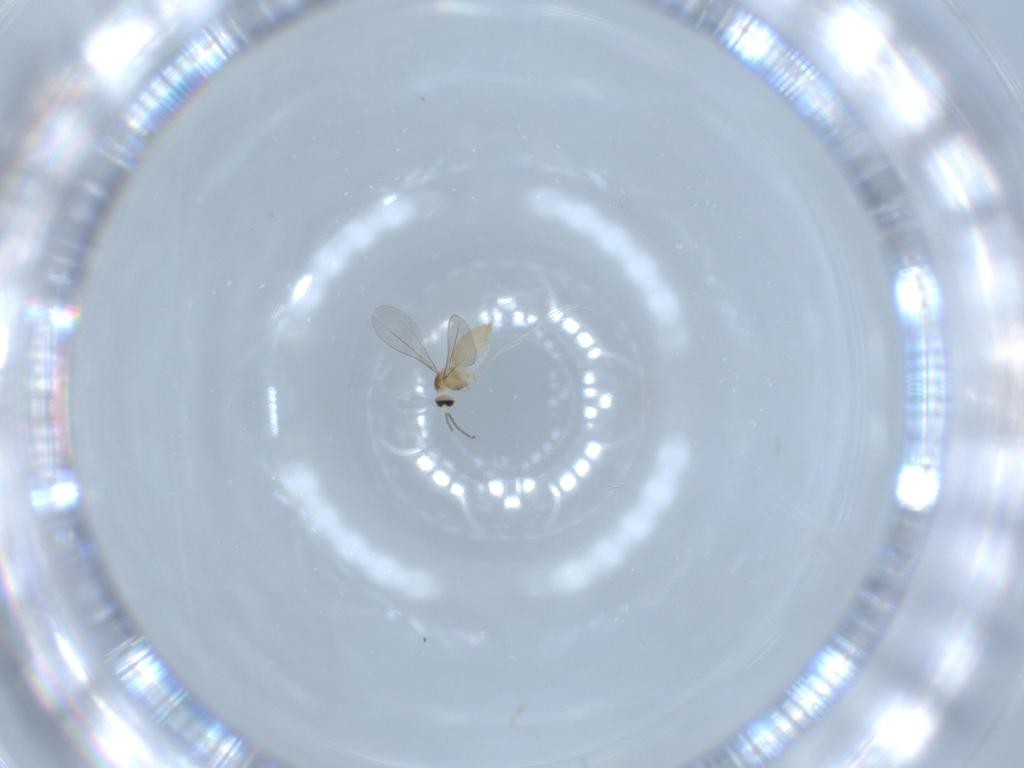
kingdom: Animalia
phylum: Arthropoda
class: Insecta
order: Diptera
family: Cecidomyiidae
